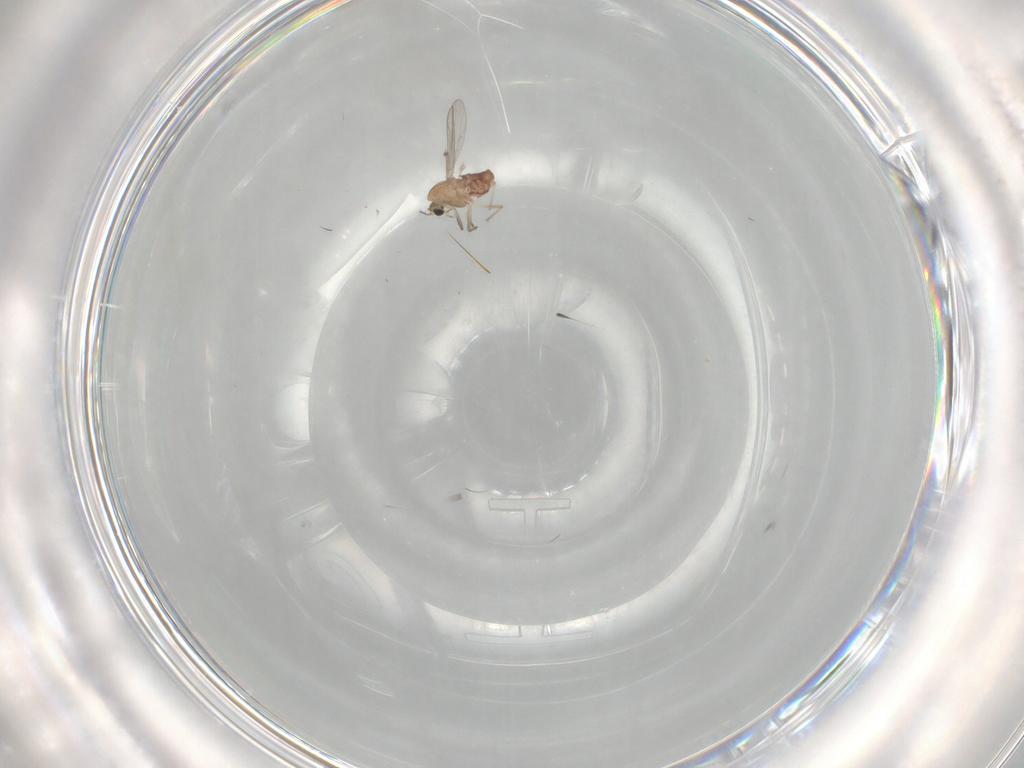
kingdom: Animalia
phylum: Arthropoda
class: Insecta
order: Diptera
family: Chironomidae
